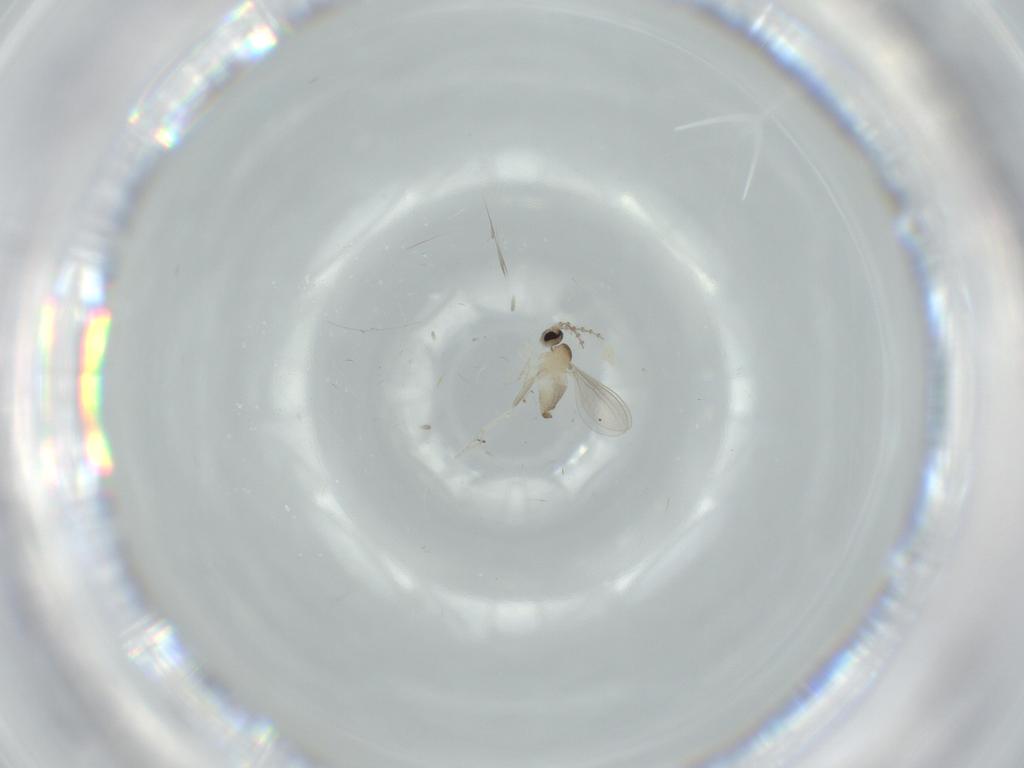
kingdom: Animalia
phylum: Arthropoda
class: Insecta
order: Diptera
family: Cecidomyiidae
